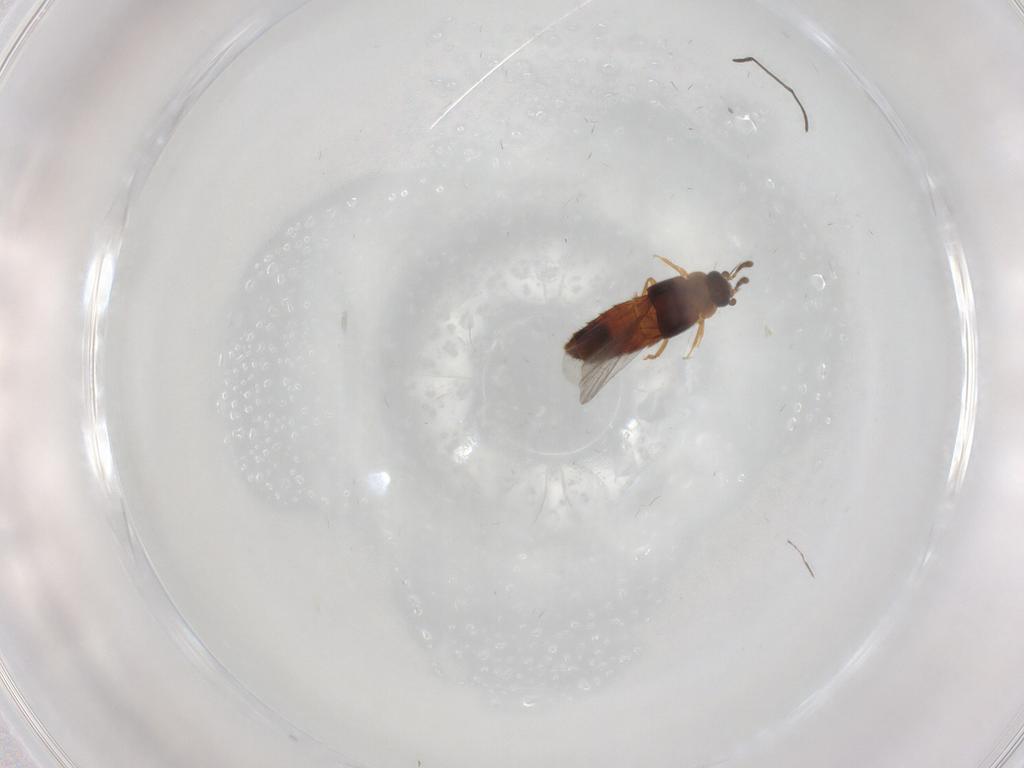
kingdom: Animalia
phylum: Arthropoda
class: Insecta
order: Coleoptera
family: Staphylinidae
